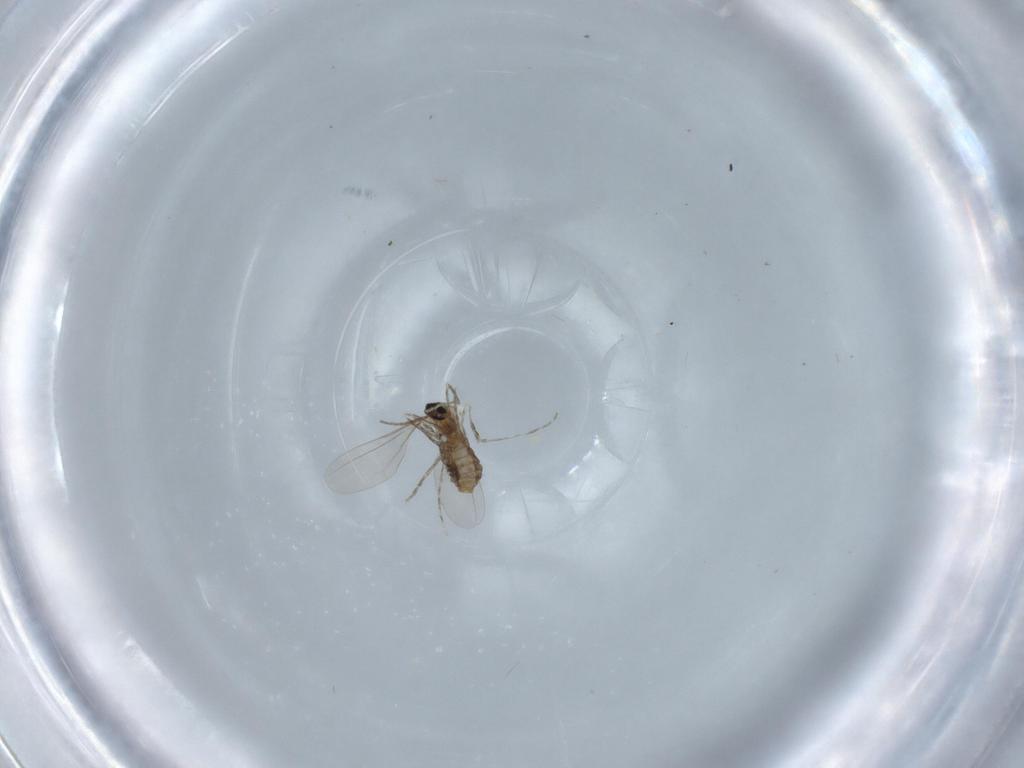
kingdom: Animalia
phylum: Arthropoda
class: Insecta
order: Diptera
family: Cecidomyiidae
